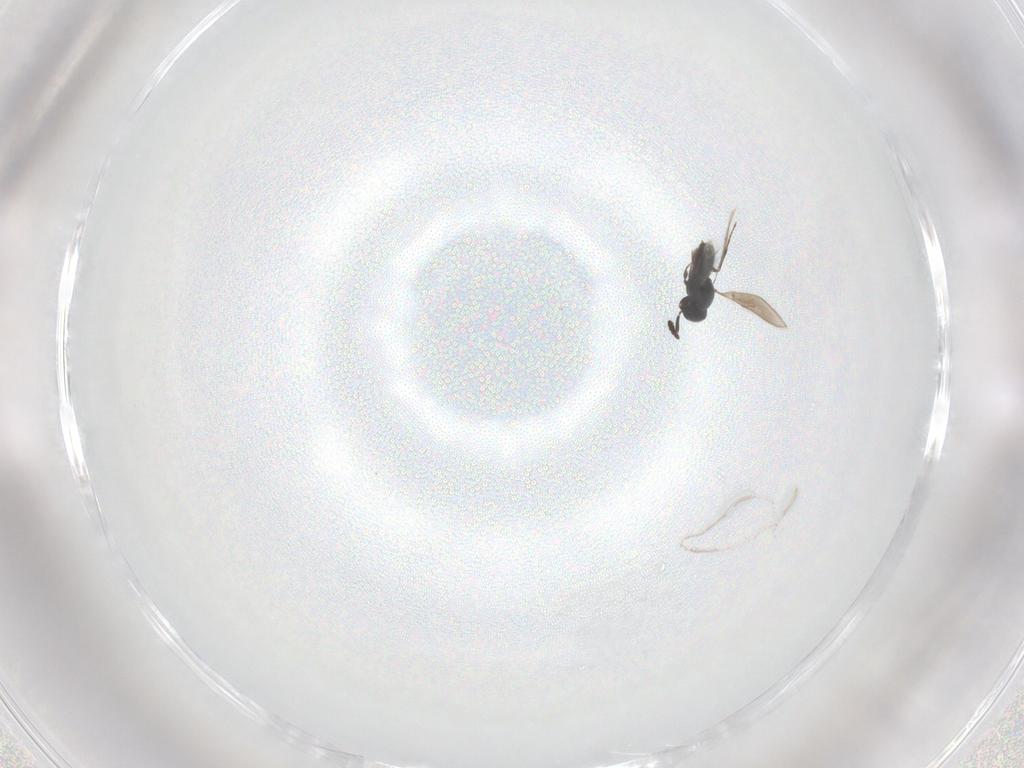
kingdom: Animalia
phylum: Arthropoda
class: Insecta
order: Hymenoptera
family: Scelionidae
